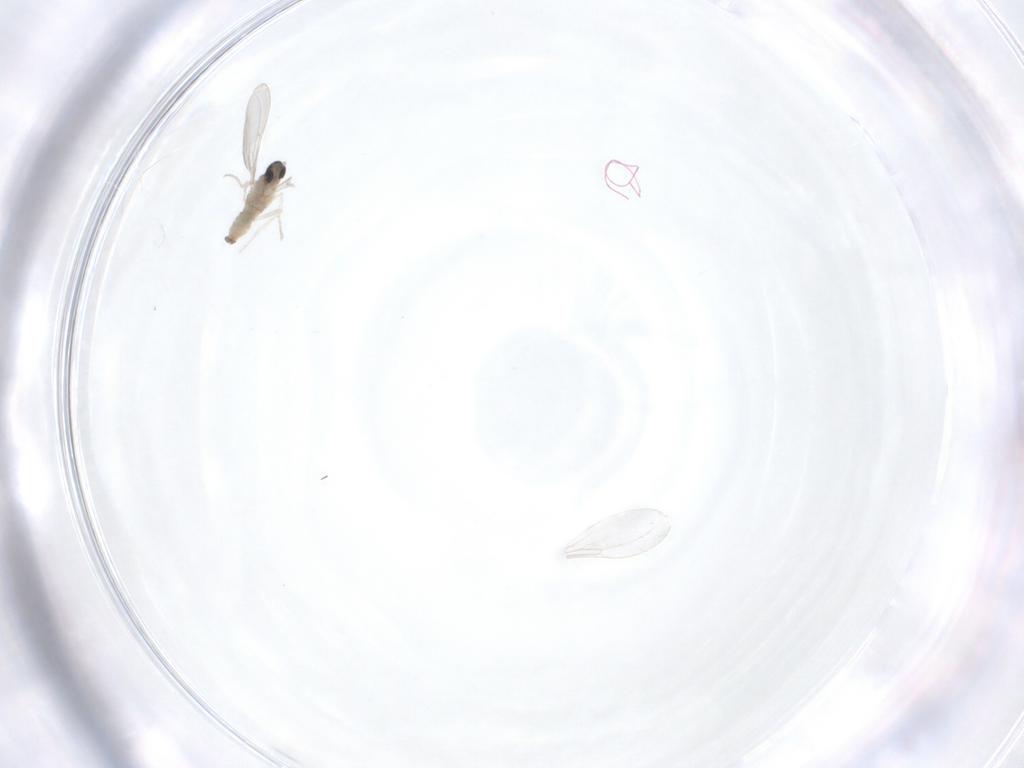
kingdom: Animalia
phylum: Arthropoda
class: Insecta
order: Diptera
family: Cecidomyiidae
